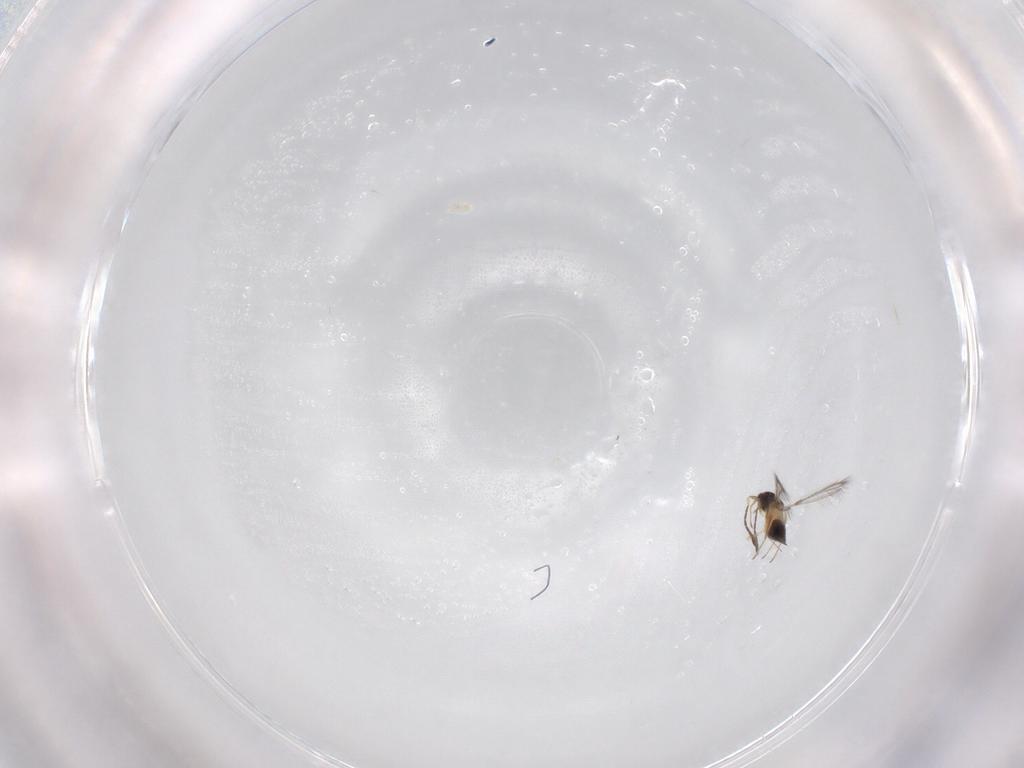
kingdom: Animalia
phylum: Arthropoda
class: Insecta
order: Hymenoptera
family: Mymaridae
